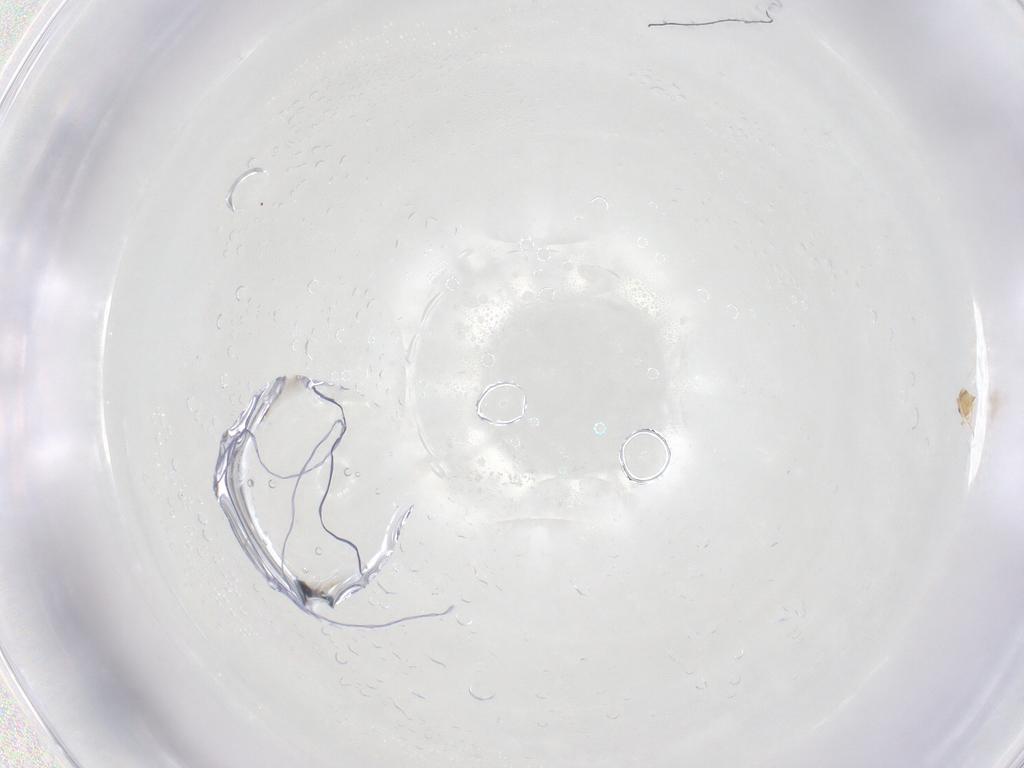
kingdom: Animalia
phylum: Arthropoda
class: Insecta
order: Hymenoptera
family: Mymaridae
